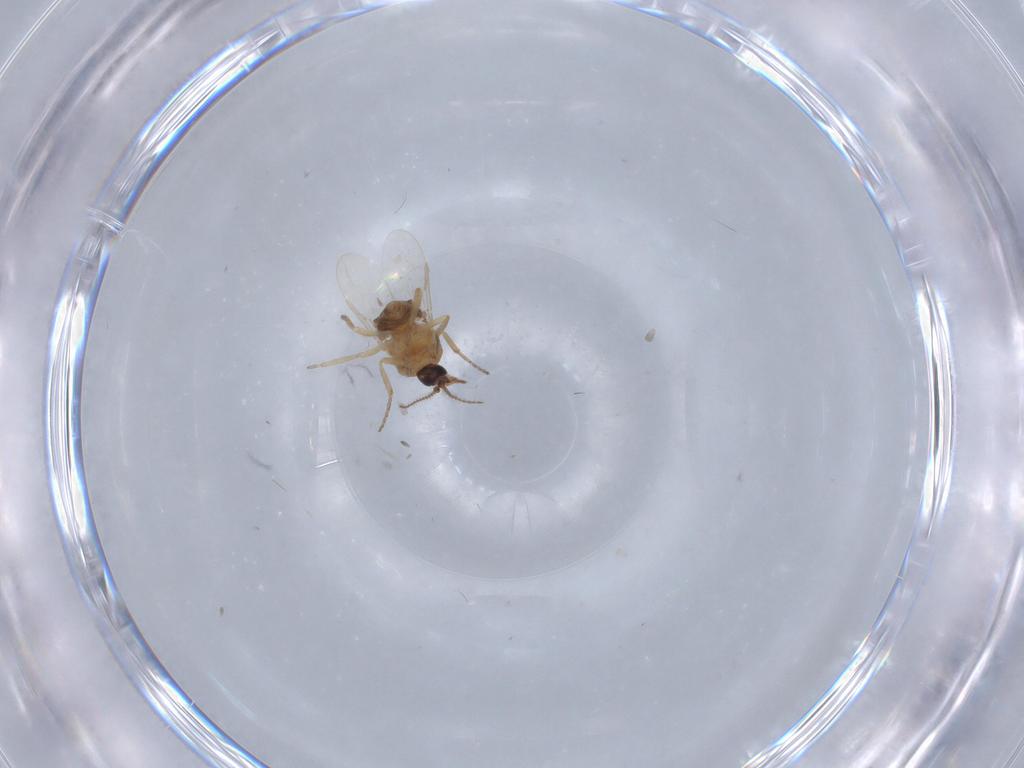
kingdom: Animalia
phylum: Arthropoda
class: Insecta
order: Diptera
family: Ceratopogonidae
